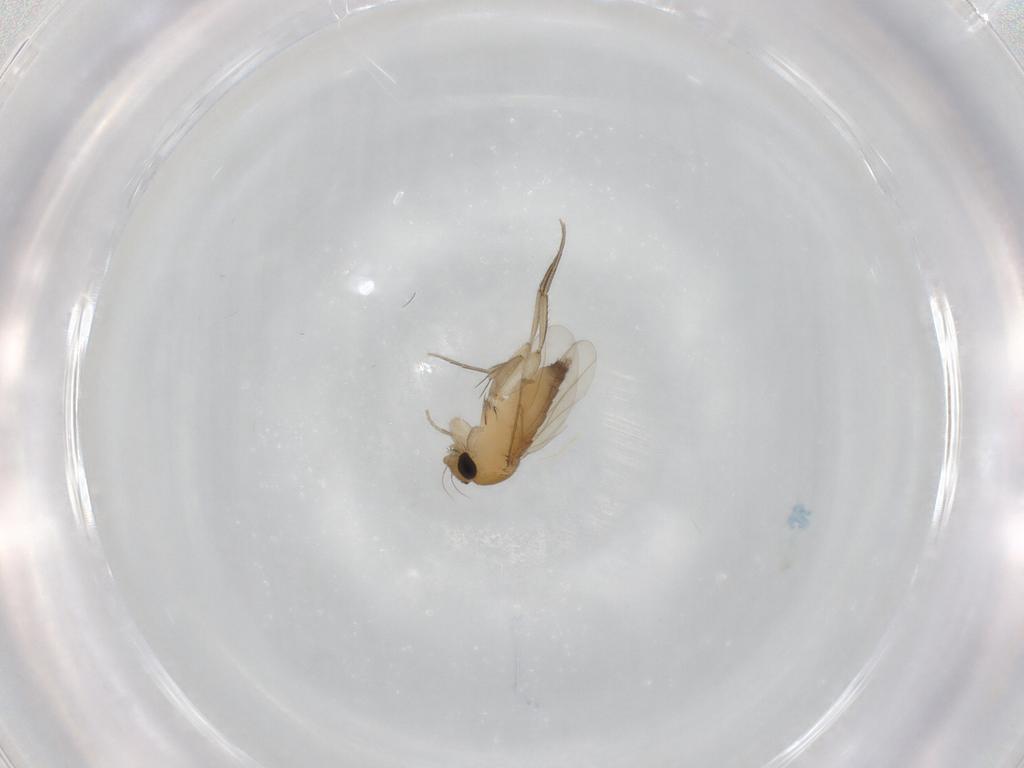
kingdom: Animalia
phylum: Arthropoda
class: Insecta
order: Diptera
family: Phoridae
